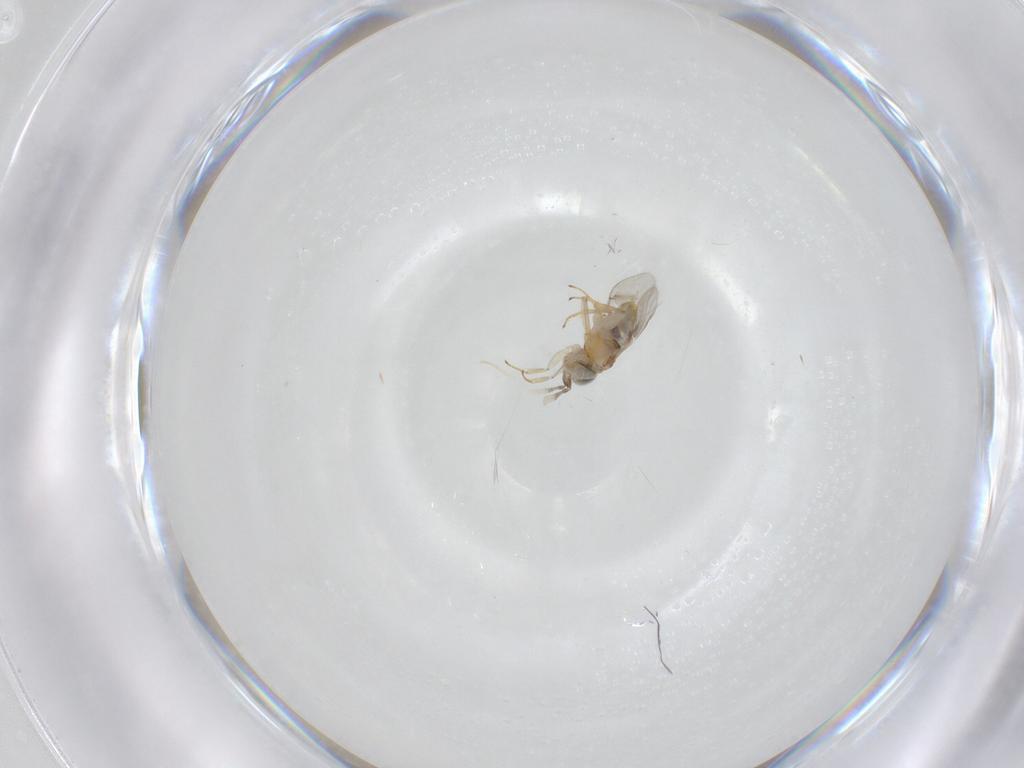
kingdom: Animalia
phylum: Arthropoda
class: Insecta
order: Hymenoptera
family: Encyrtidae
